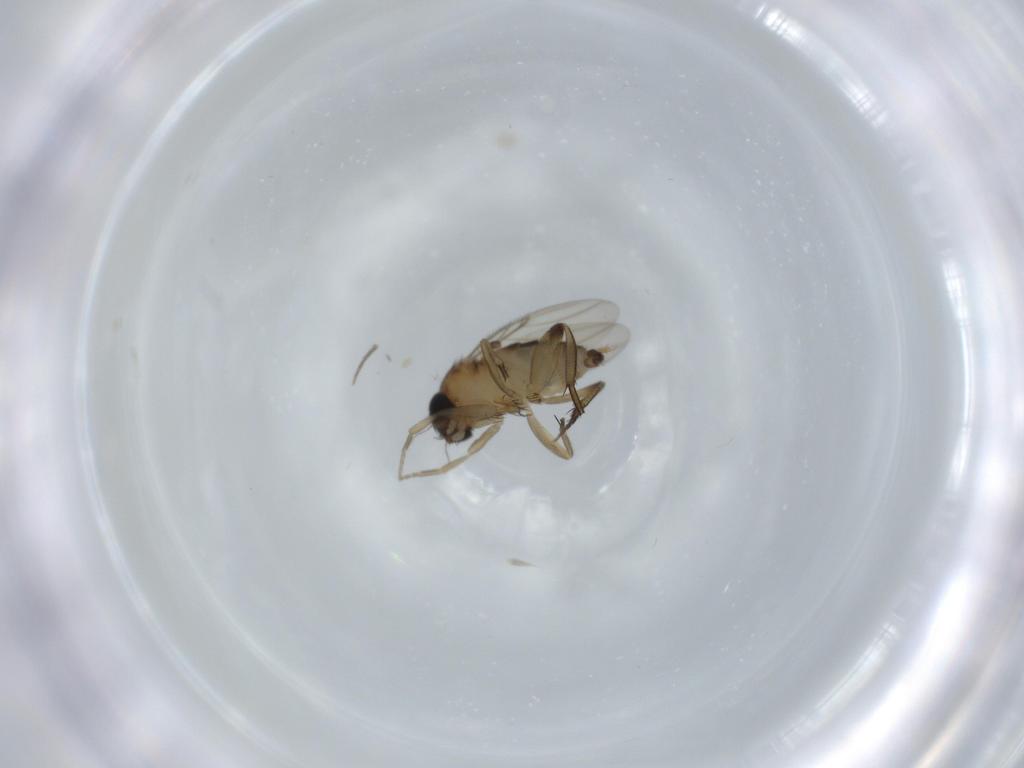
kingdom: Animalia
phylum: Arthropoda
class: Insecta
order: Diptera
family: Phoridae
